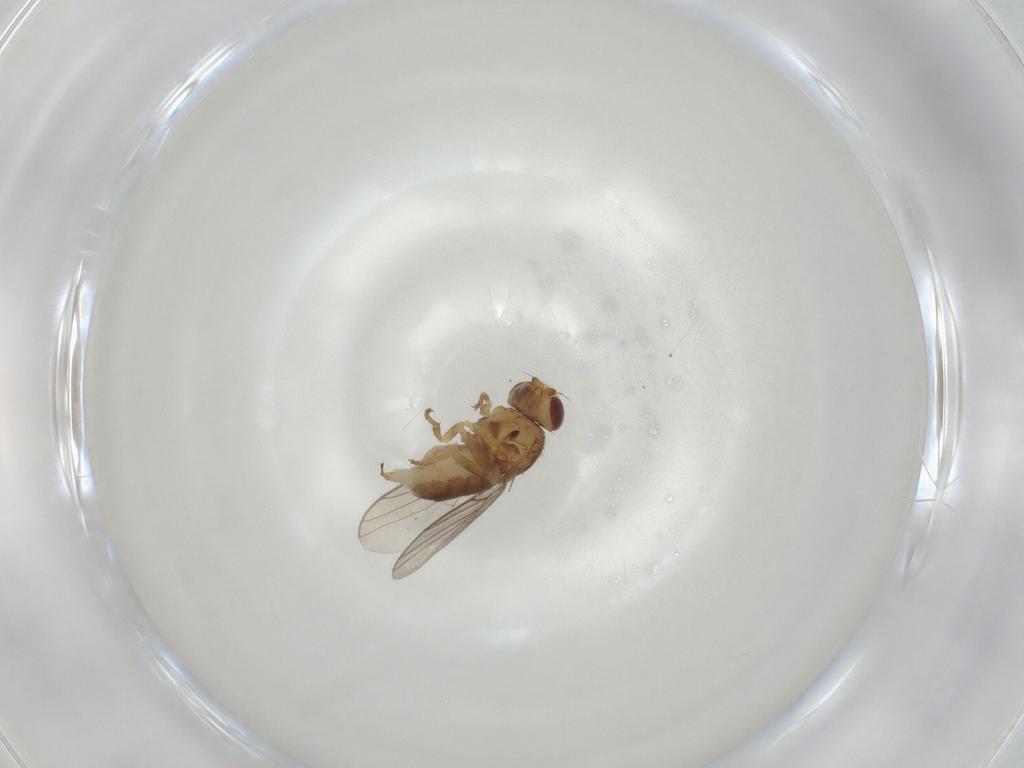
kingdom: Animalia
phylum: Arthropoda
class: Insecta
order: Diptera
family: Chloropidae
